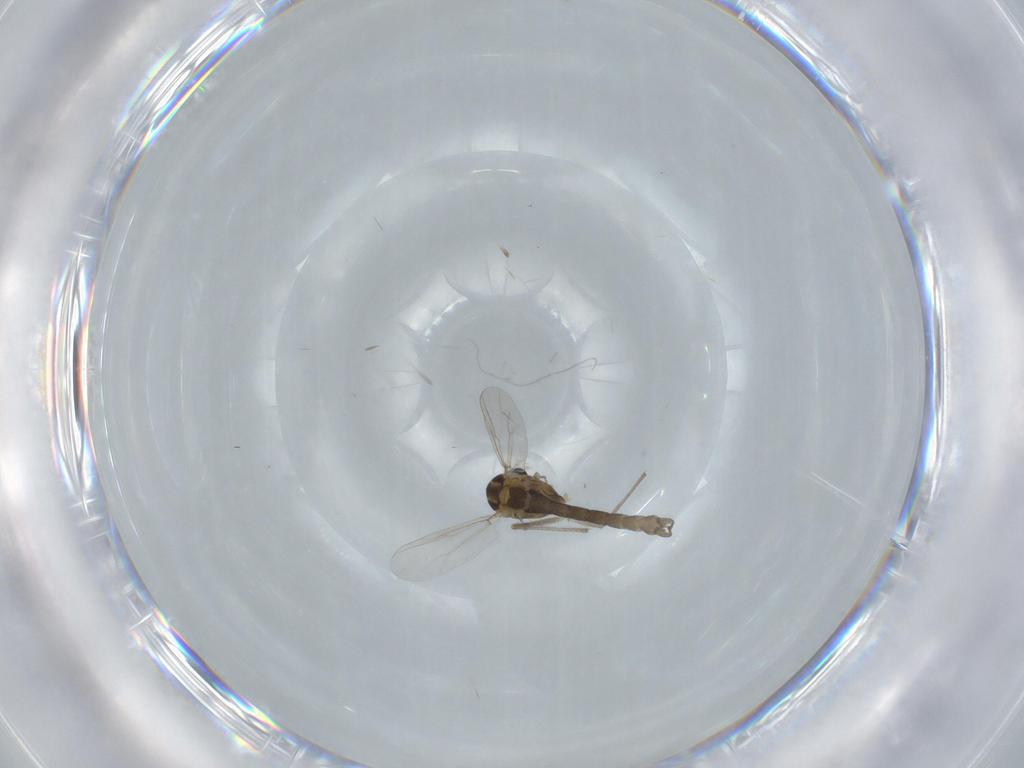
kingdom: Animalia
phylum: Arthropoda
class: Insecta
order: Diptera
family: Chironomidae
